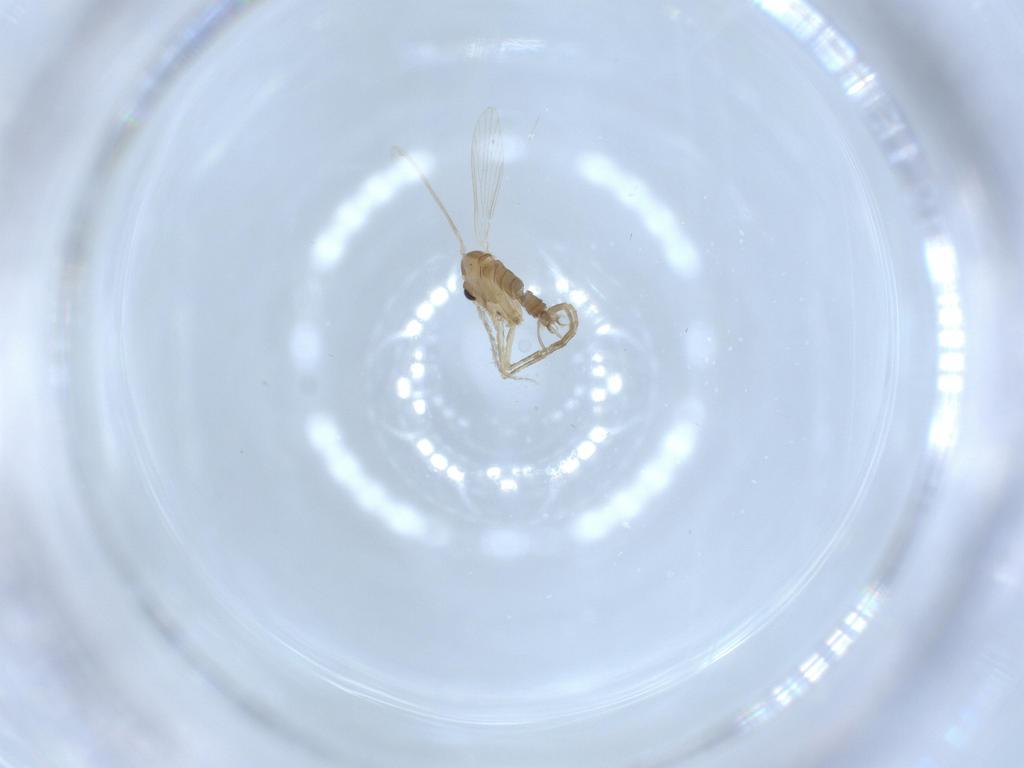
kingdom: Animalia
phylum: Arthropoda
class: Insecta
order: Diptera
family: Psychodidae
